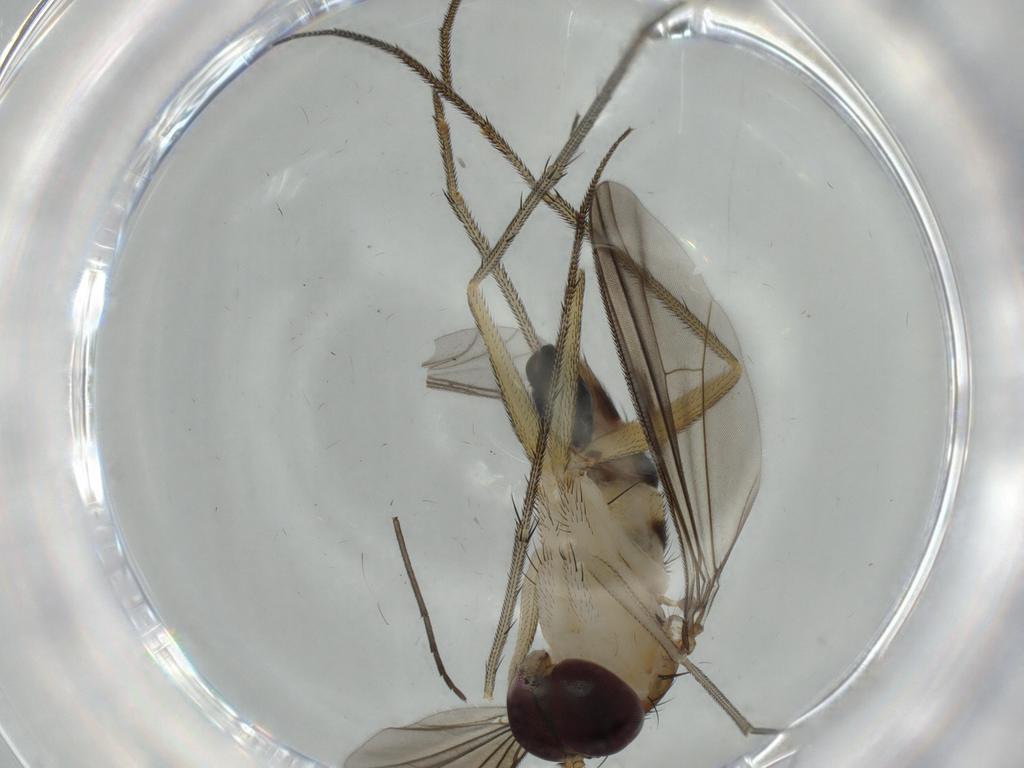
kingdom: Animalia
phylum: Arthropoda
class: Insecta
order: Diptera
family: Dolichopodidae
